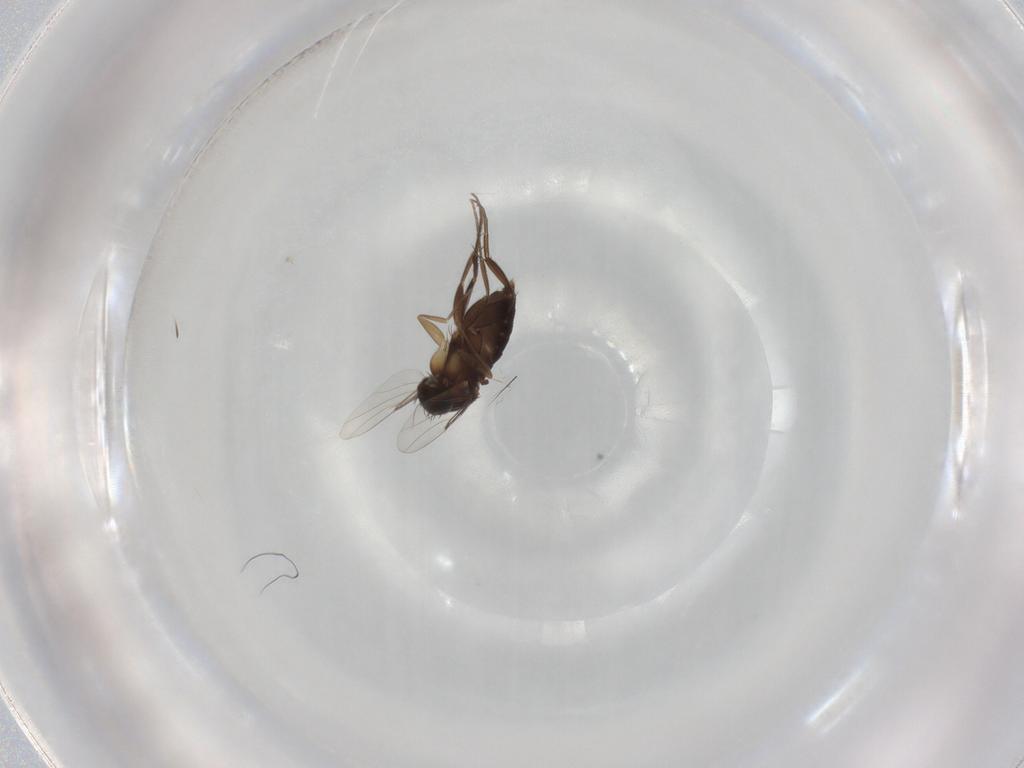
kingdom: Animalia
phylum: Arthropoda
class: Insecta
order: Diptera
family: Phoridae
